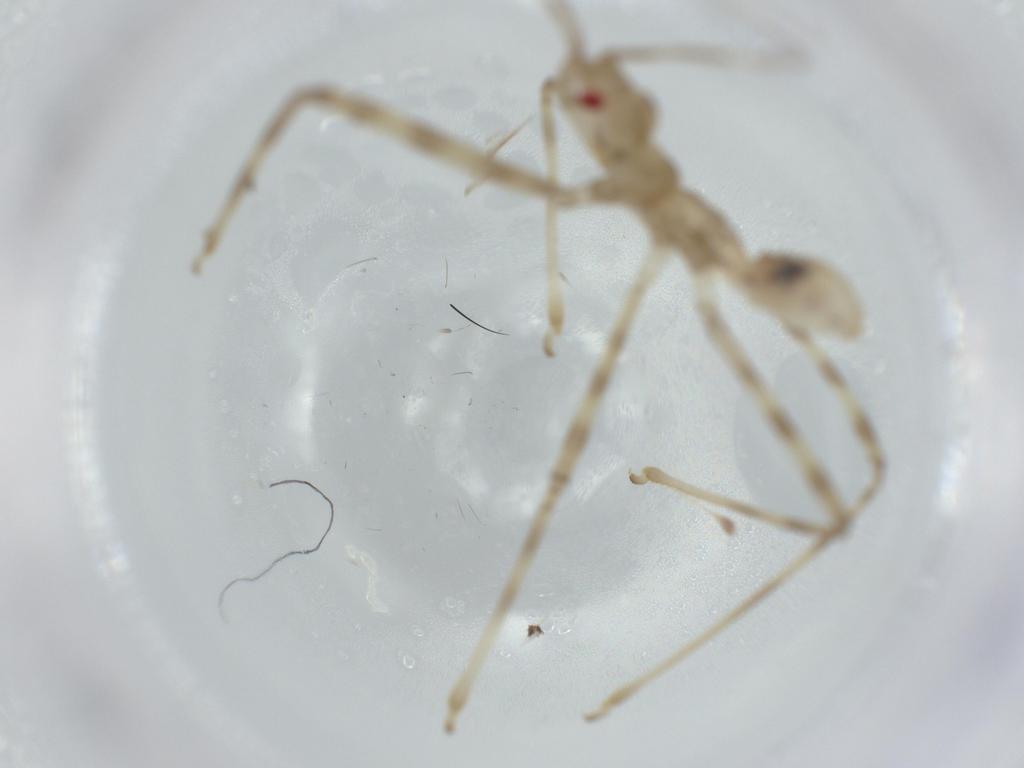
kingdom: Animalia
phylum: Arthropoda
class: Insecta
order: Hemiptera
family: Reduviidae
